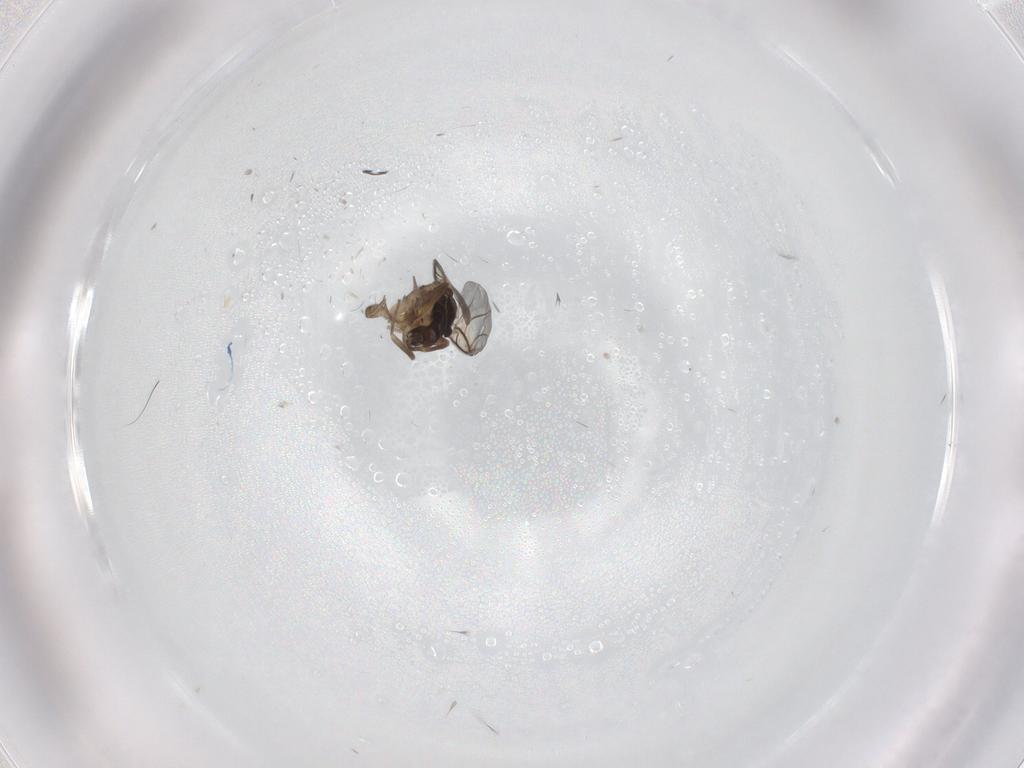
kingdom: Animalia
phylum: Arthropoda
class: Insecta
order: Diptera
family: Phoridae
